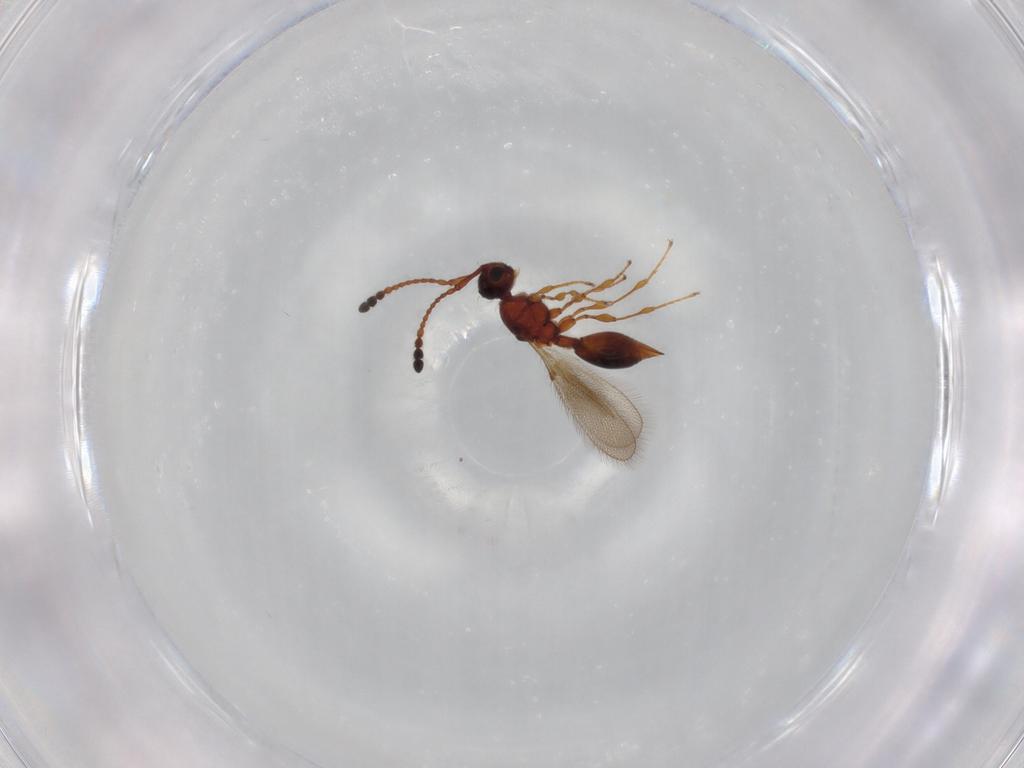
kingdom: Animalia
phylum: Arthropoda
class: Insecta
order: Hymenoptera
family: Diapriidae
